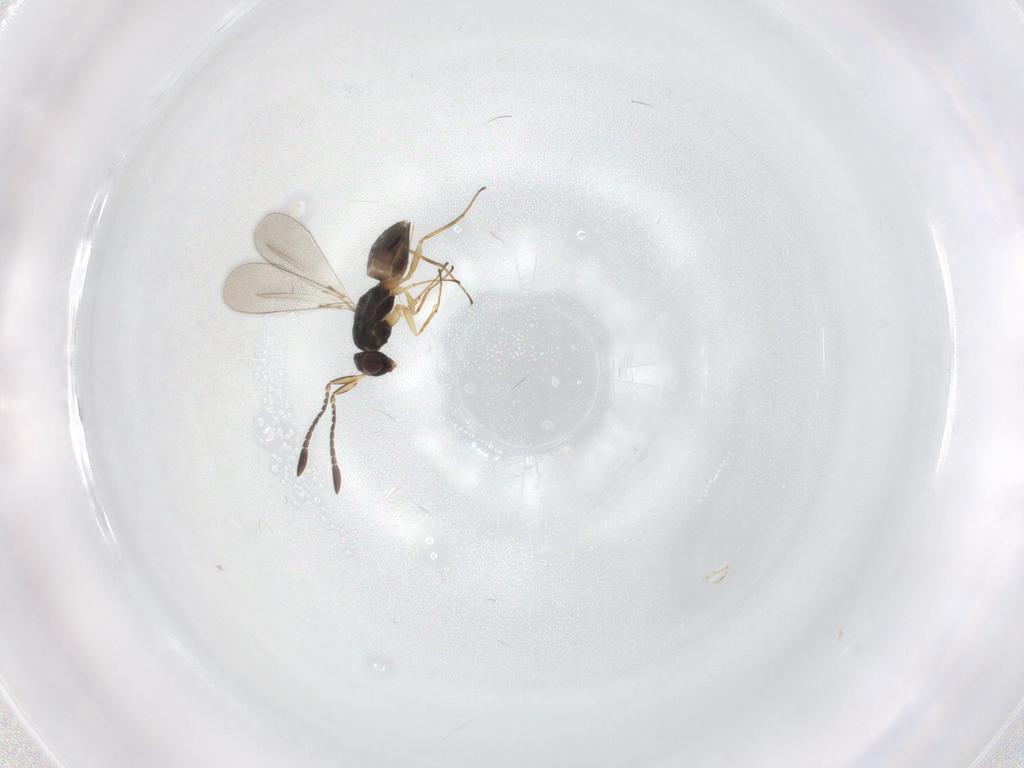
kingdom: Animalia
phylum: Arthropoda
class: Insecta
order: Hymenoptera
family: Mymaridae
